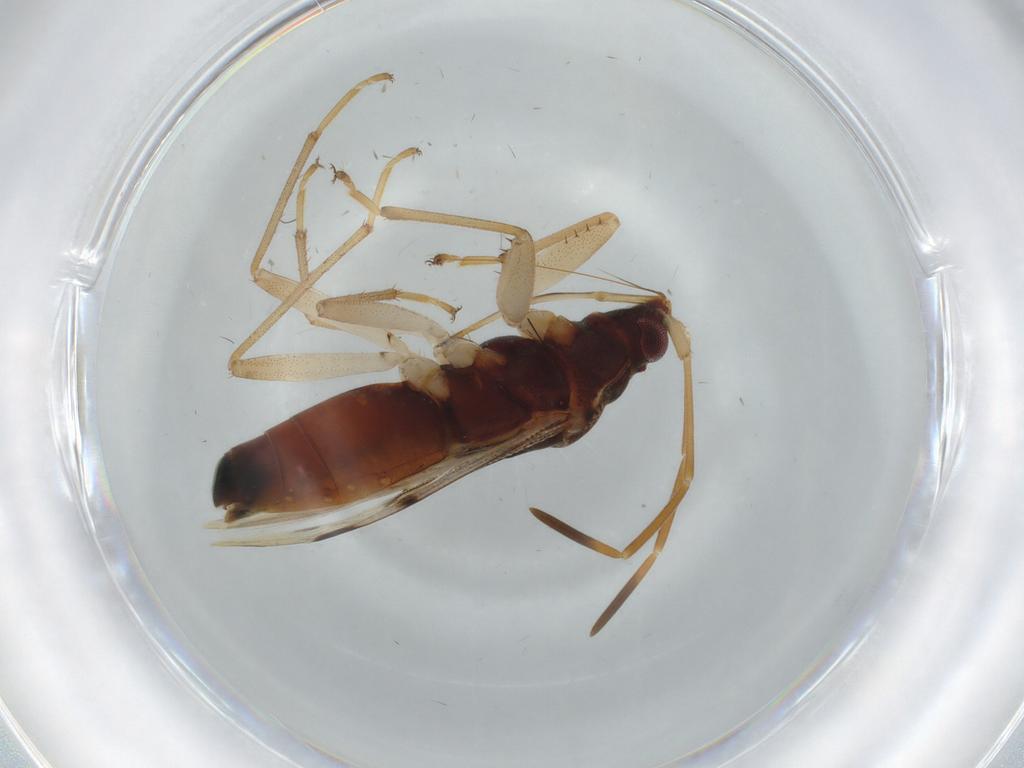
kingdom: Animalia
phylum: Arthropoda
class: Insecta
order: Hemiptera
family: Rhyparochromidae
